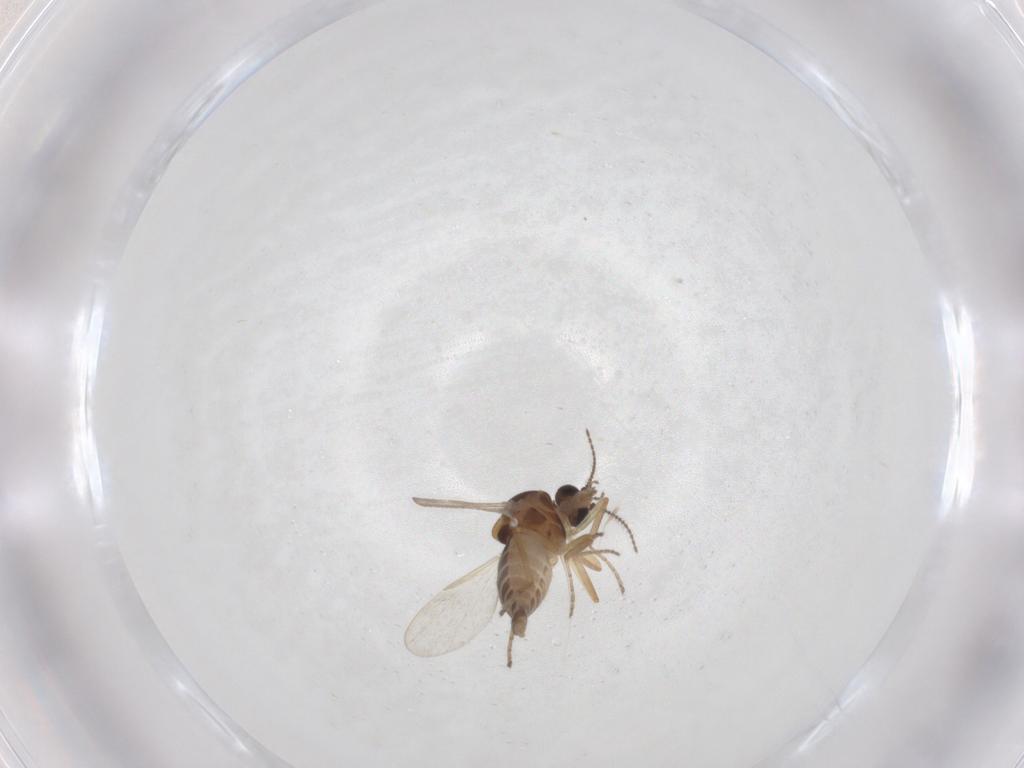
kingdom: Animalia
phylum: Arthropoda
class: Insecta
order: Diptera
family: Ceratopogonidae
